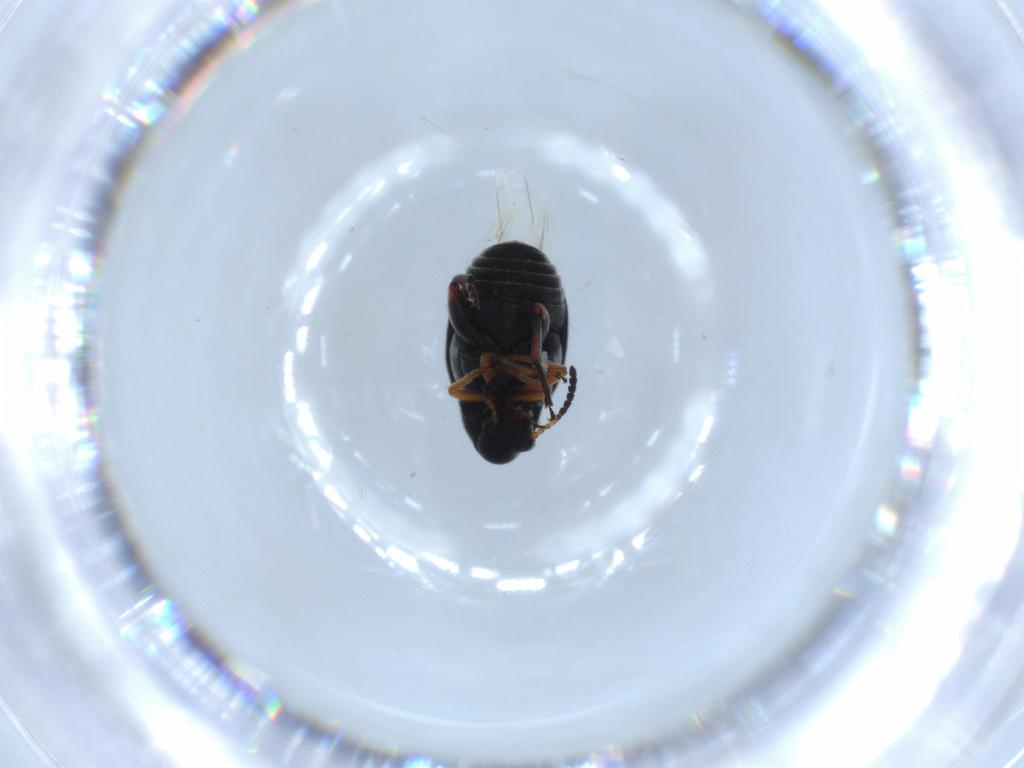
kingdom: Animalia
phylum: Arthropoda
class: Insecta
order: Coleoptera
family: Chrysomelidae
